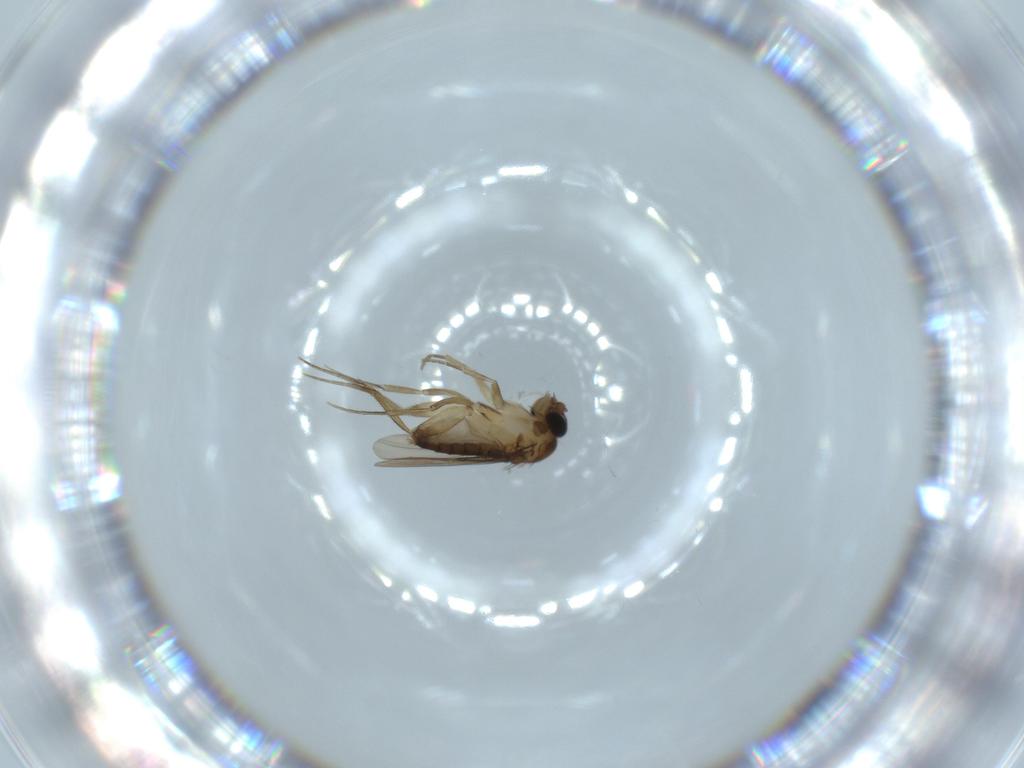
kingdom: Animalia
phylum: Arthropoda
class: Insecta
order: Diptera
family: Phoridae
